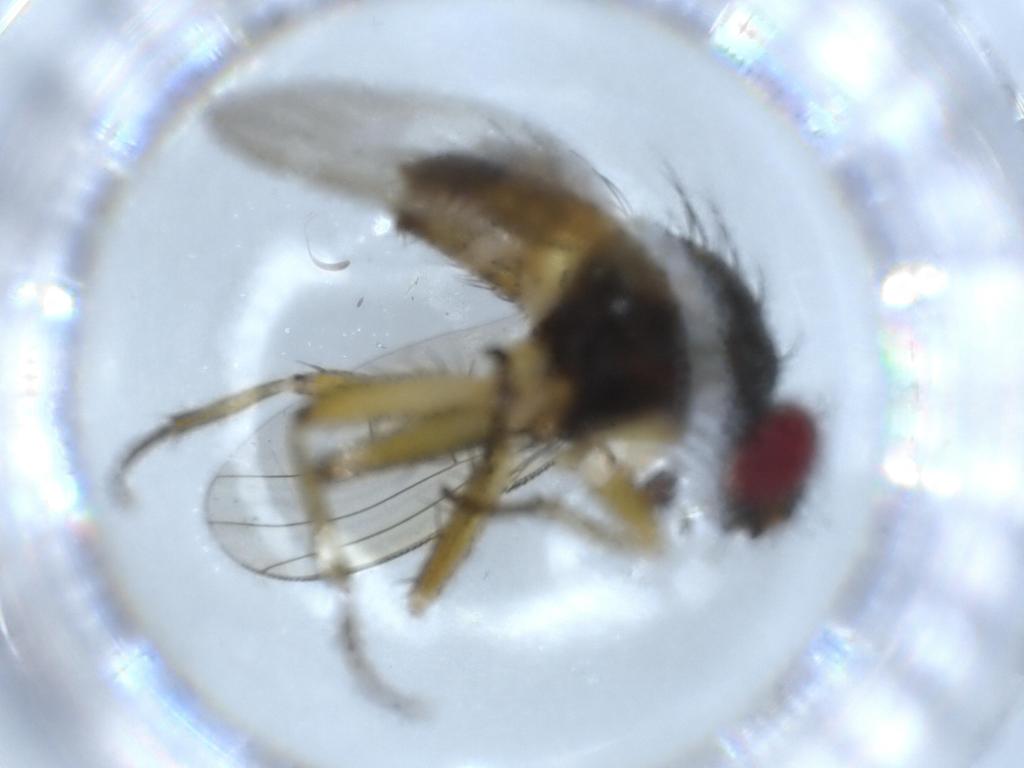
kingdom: Animalia
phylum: Arthropoda
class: Insecta
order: Diptera
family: Muscidae
